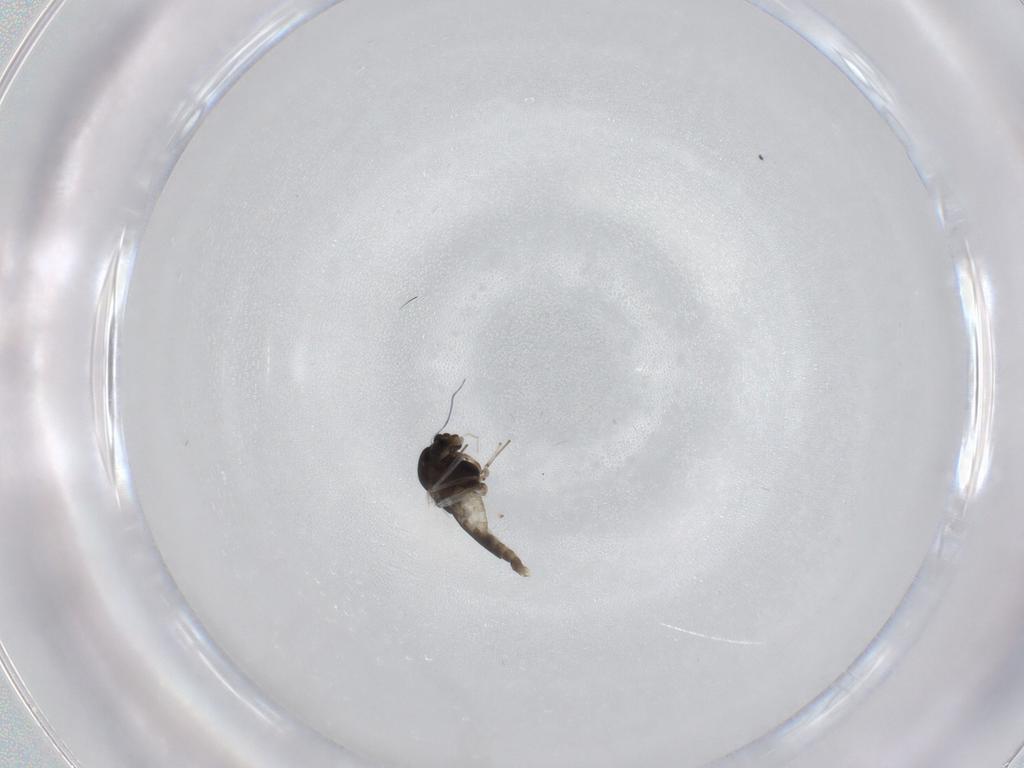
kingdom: Animalia
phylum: Arthropoda
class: Insecta
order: Diptera
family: Chironomidae
